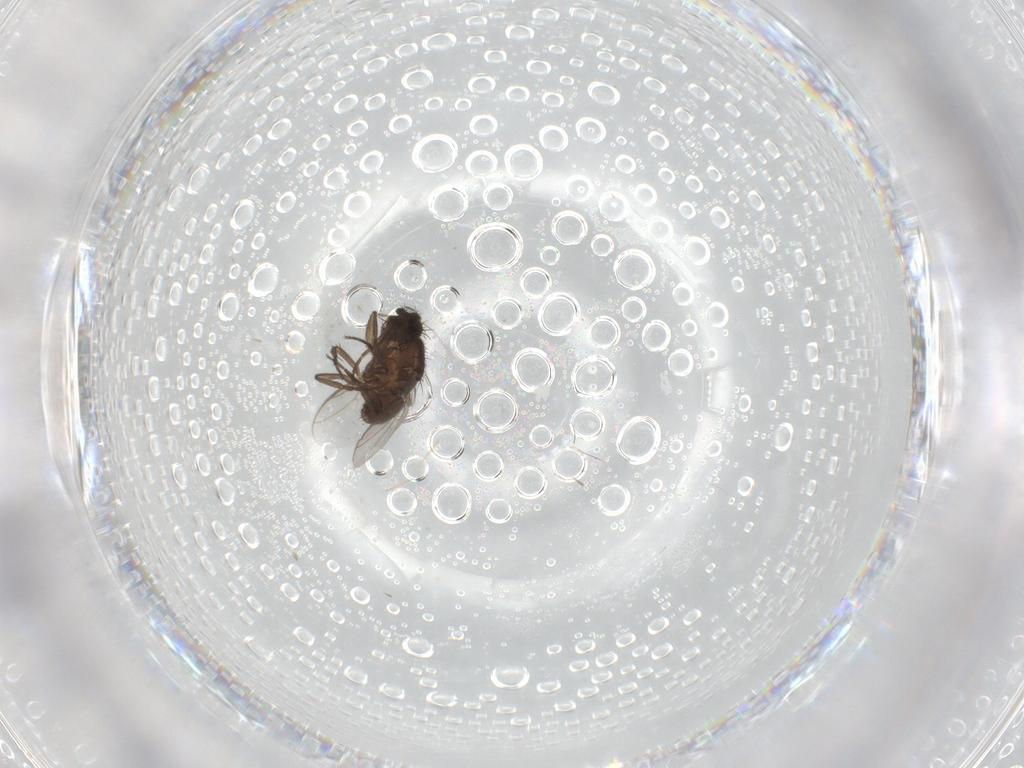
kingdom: Animalia
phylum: Arthropoda
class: Insecta
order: Diptera
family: Sphaeroceridae
